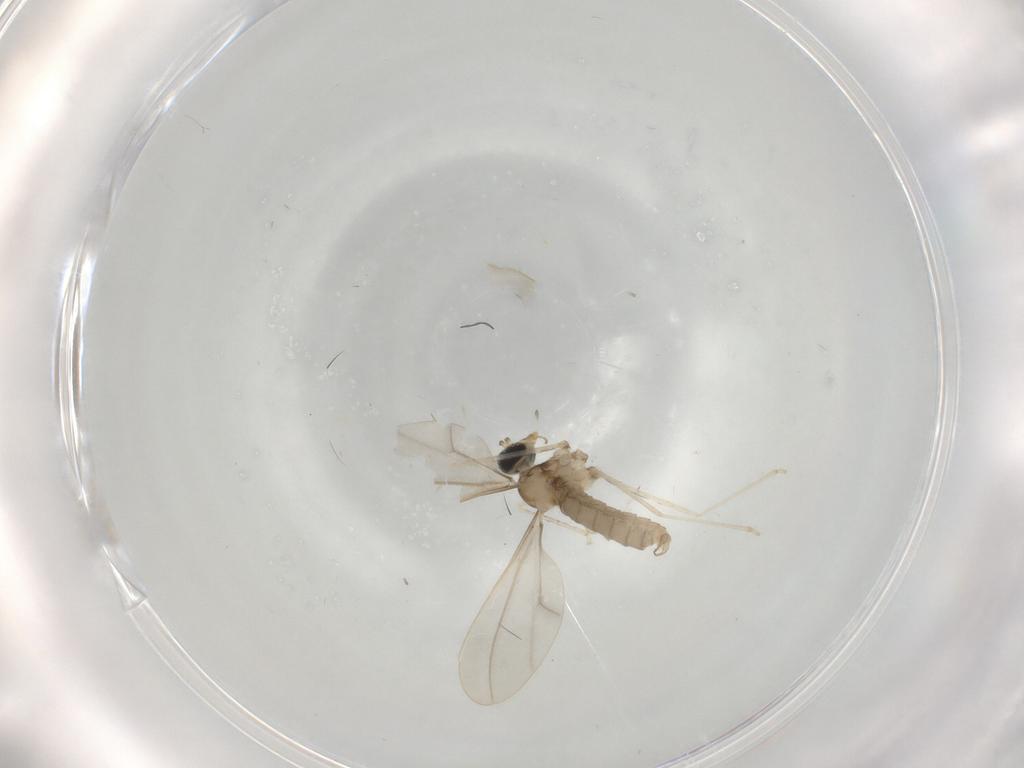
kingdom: Animalia
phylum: Arthropoda
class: Insecta
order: Diptera
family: Cecidomyiidae
